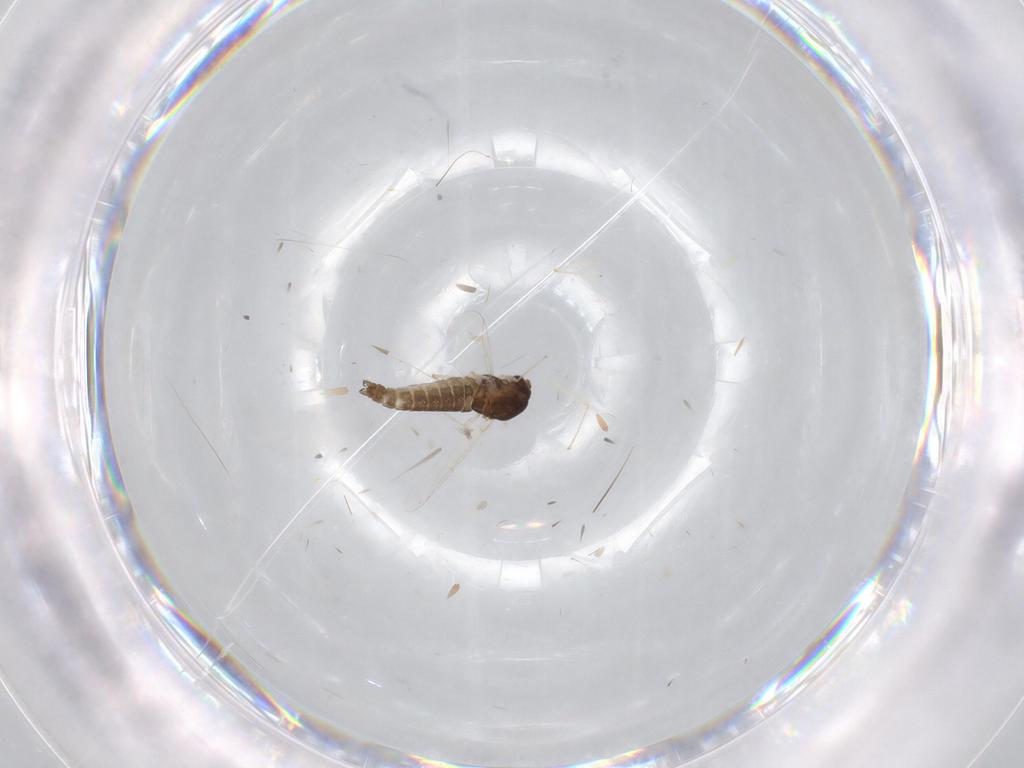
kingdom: Animalia
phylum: Arthropoda
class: Insecta
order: Diptera
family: Chironomidae
